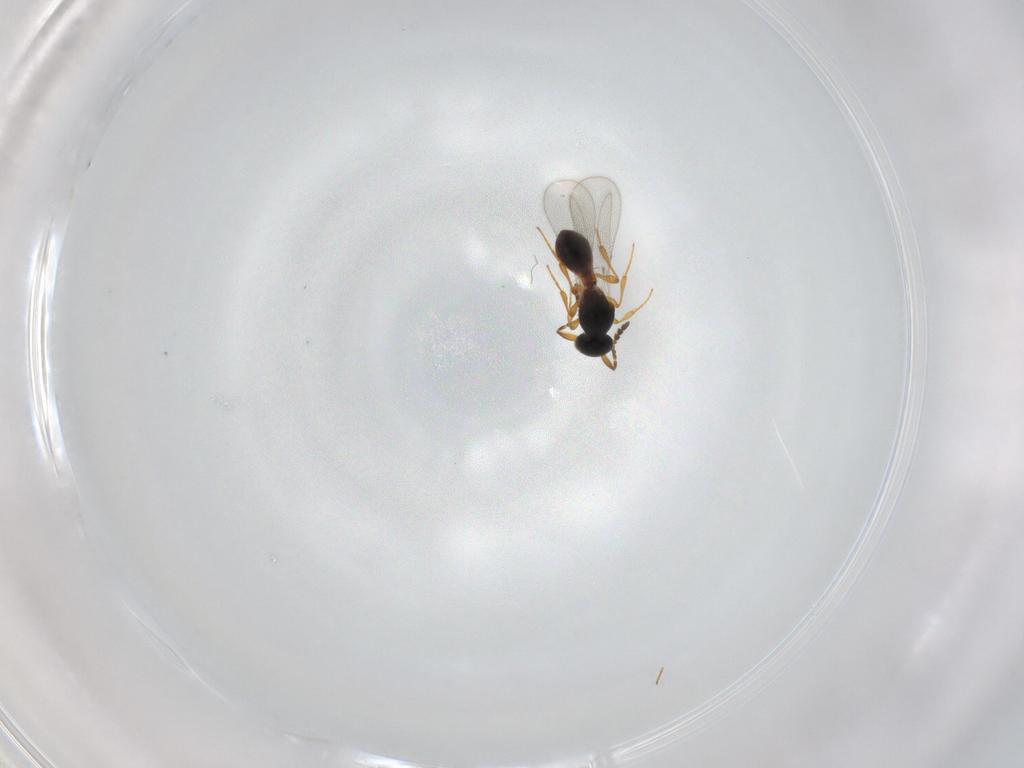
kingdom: Animalia
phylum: Arthropoda
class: Insecta
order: Hymenoptera
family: Platygastridae
